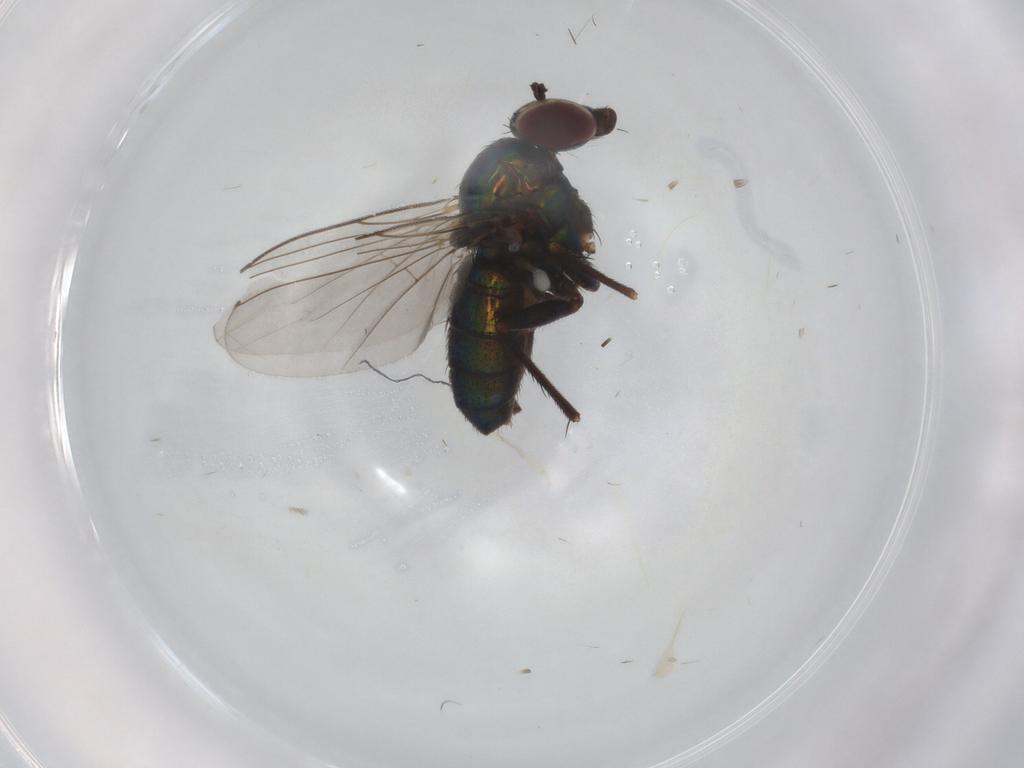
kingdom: Animalia
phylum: Arthropoda
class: Insecta
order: Diptera
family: Dolichopodidae
